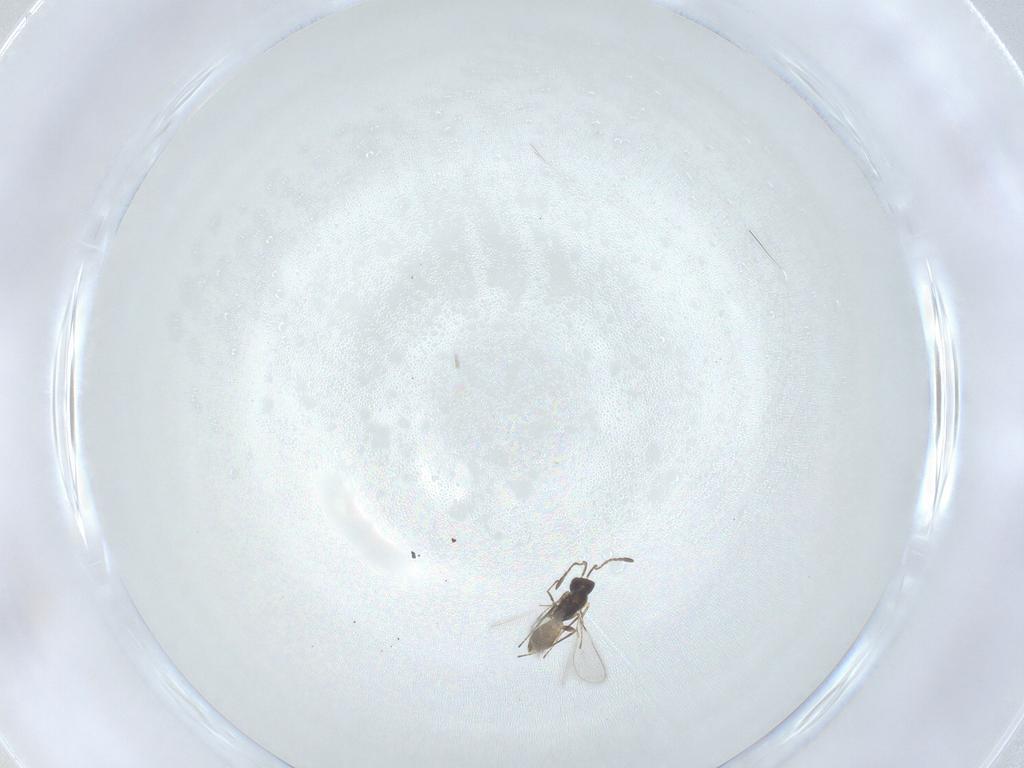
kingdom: Animalia
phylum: Arthropoda
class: Insecta
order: Hymenoptera
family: Mymaridae
